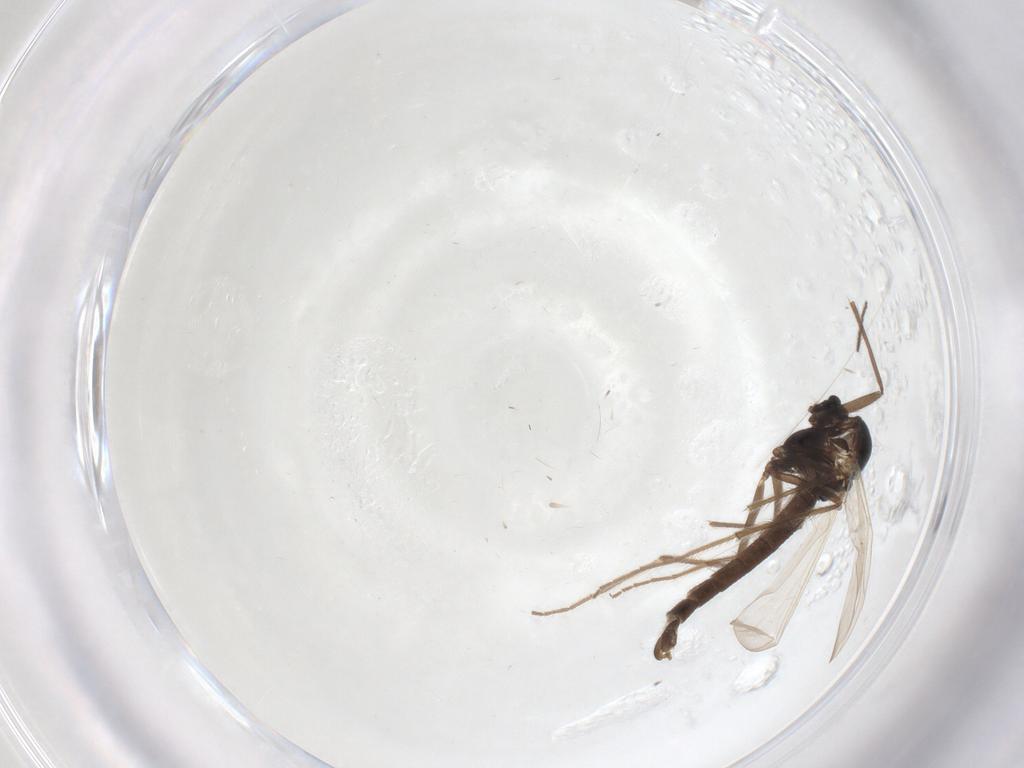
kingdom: Animalia
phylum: Arthropoda
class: Insecta
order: Diptera
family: Chironomidae
